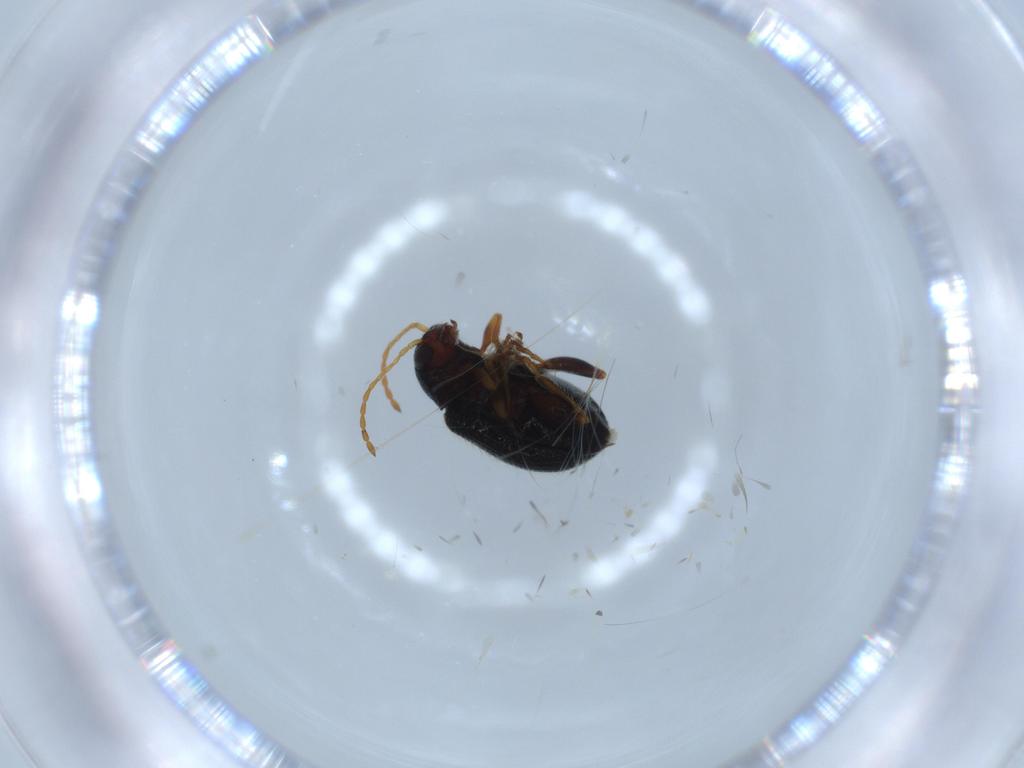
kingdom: Animalia
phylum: Arthropoda
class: Insecta
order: Coleoptera
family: Chrysomelidae
